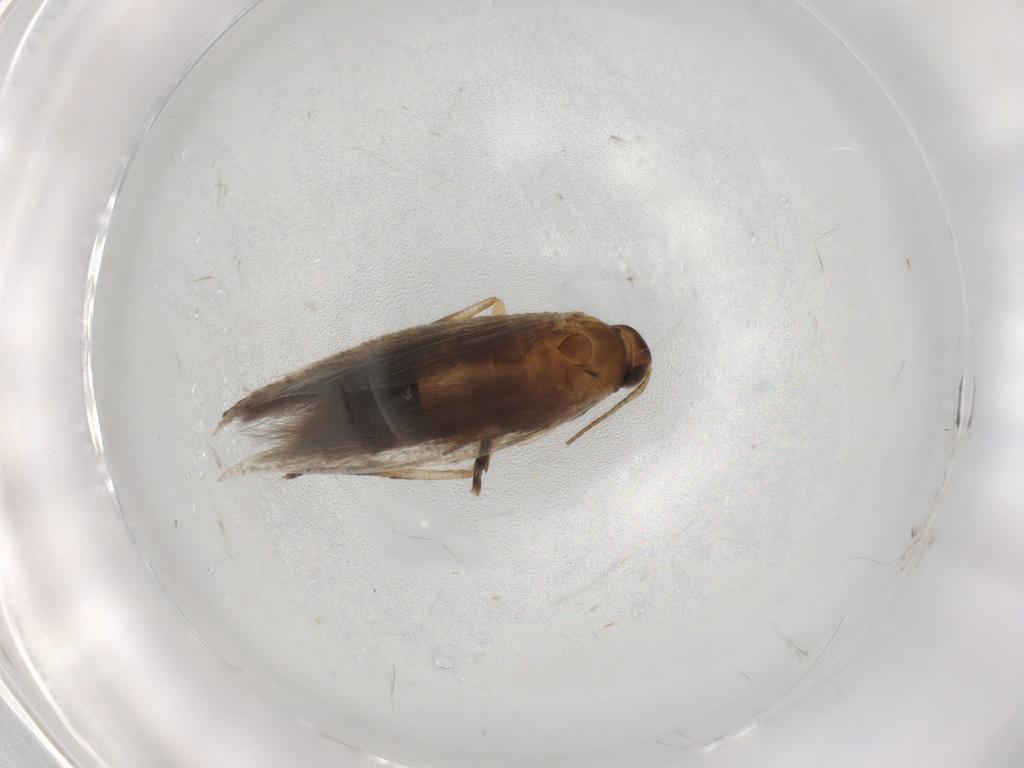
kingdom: Animalia
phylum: Arthropoda
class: Insecta
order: Lepidoptera
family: Gelechiidae
